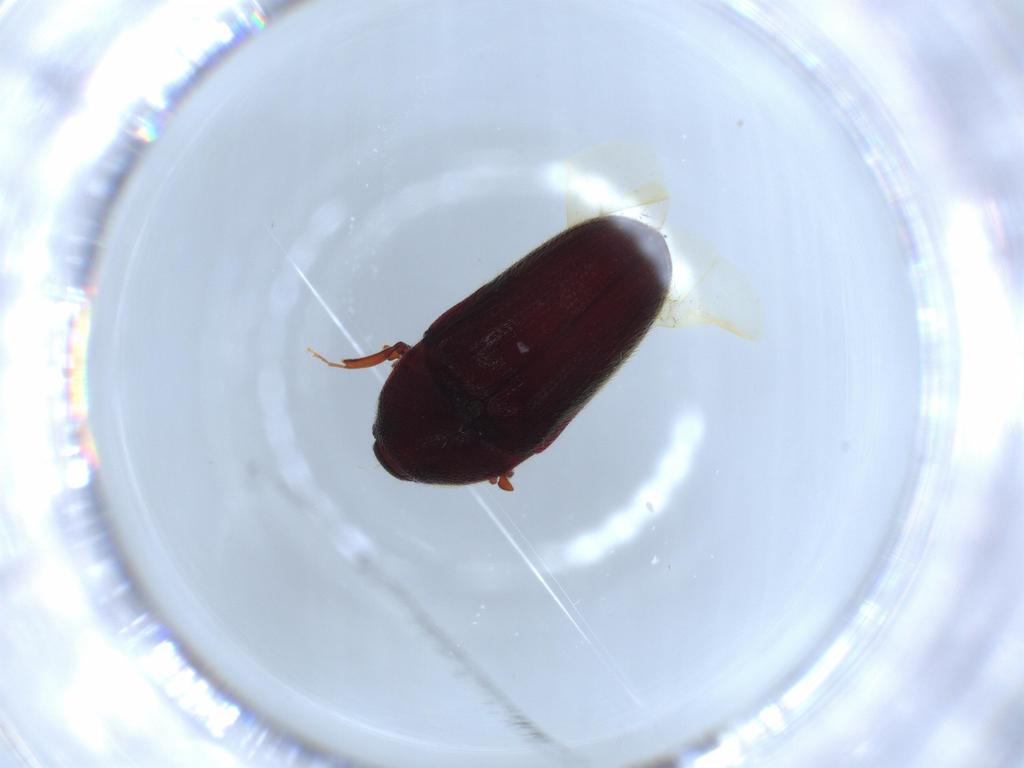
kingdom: Animalia
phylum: Arthropoda
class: Insecta
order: Coleoptera
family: Throscidae
